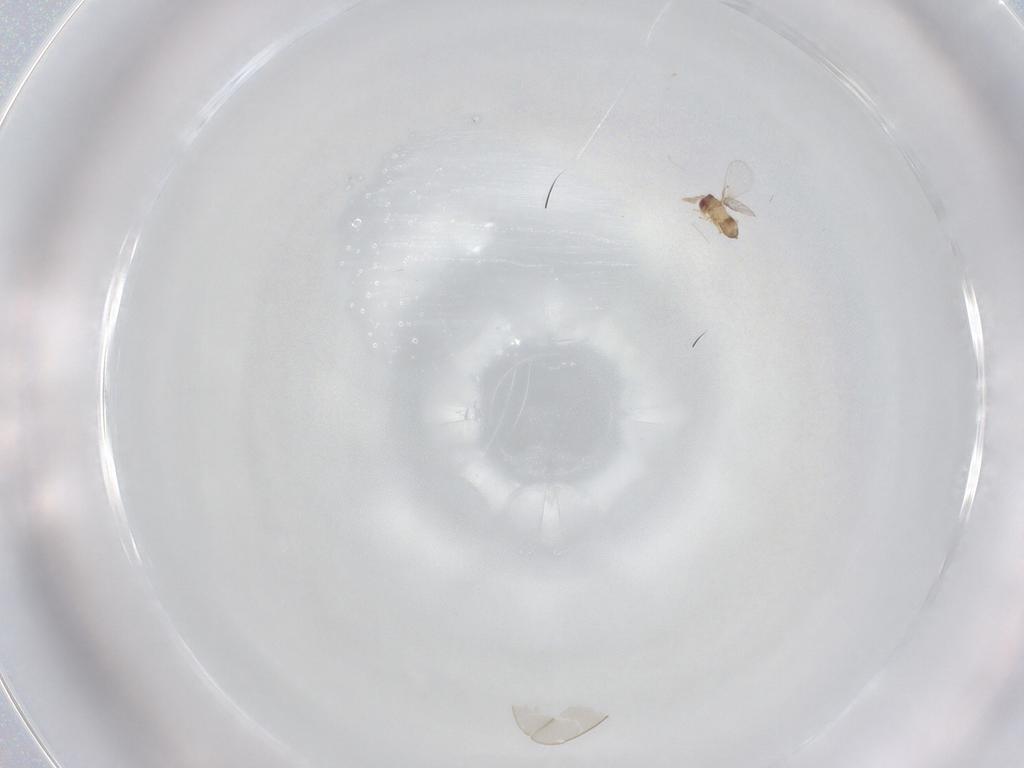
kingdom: Animalia
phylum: Arthropoda
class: Insecta
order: Hymenoptera
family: Trichogrammatidae
